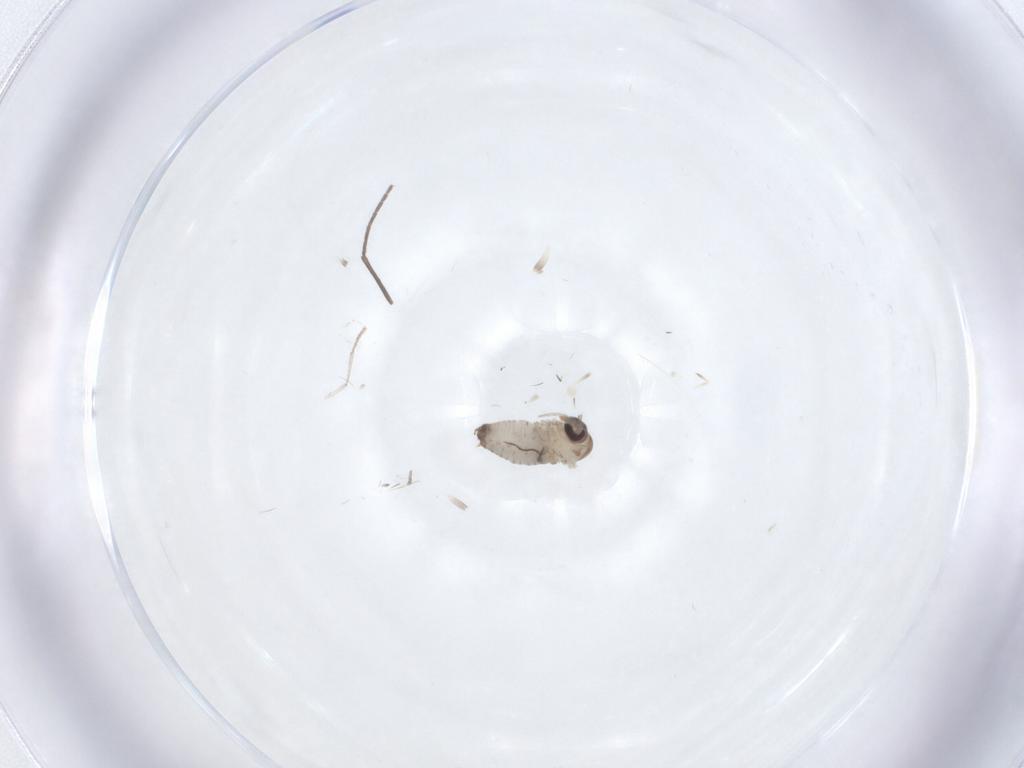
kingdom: Animalia
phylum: Arthropoda
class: Insecta
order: Diptera
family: Psychodidae
